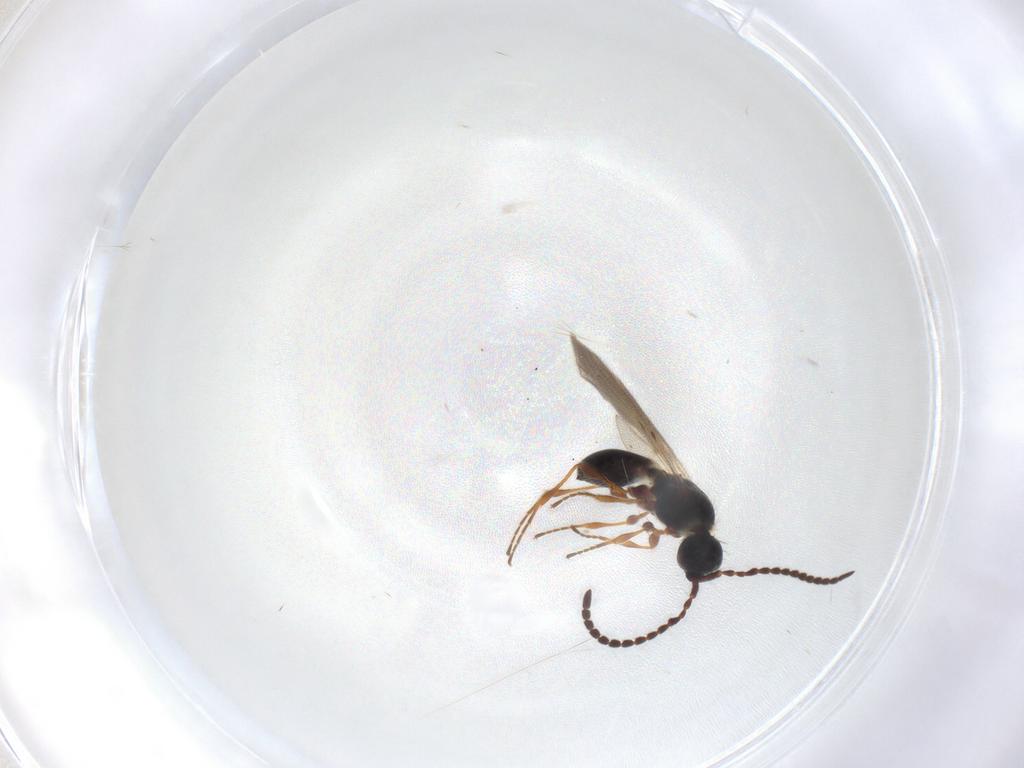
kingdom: Animalia
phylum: Arthropoda
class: Insecta
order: Hymenoptera
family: Diapriidae
